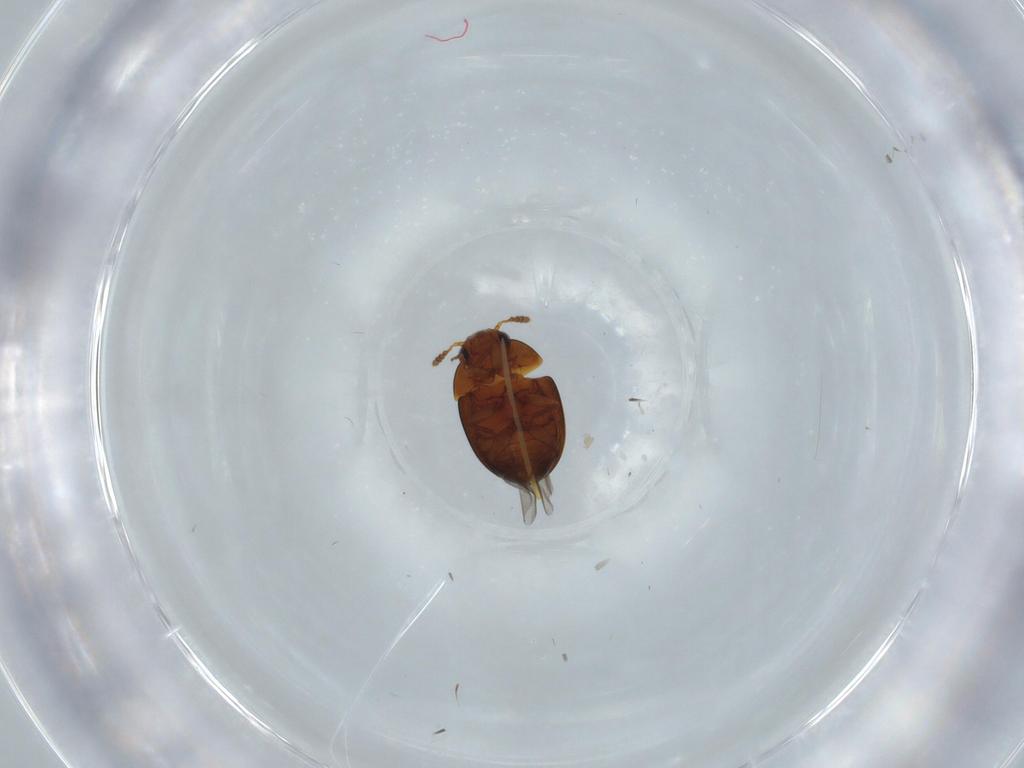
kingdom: Animalia
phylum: Arthropoda
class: Insecta
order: Coleoptera
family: Leiodidae
